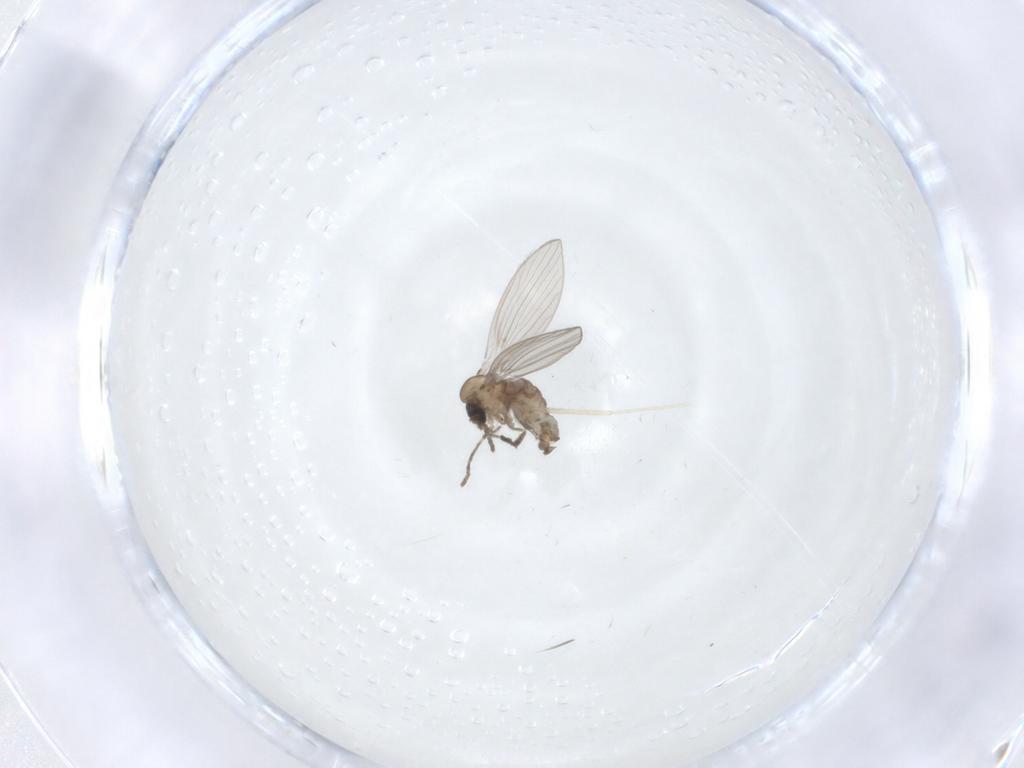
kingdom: Animalia
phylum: Arthropoda
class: Insecta
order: Diptera
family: Psychodidae
